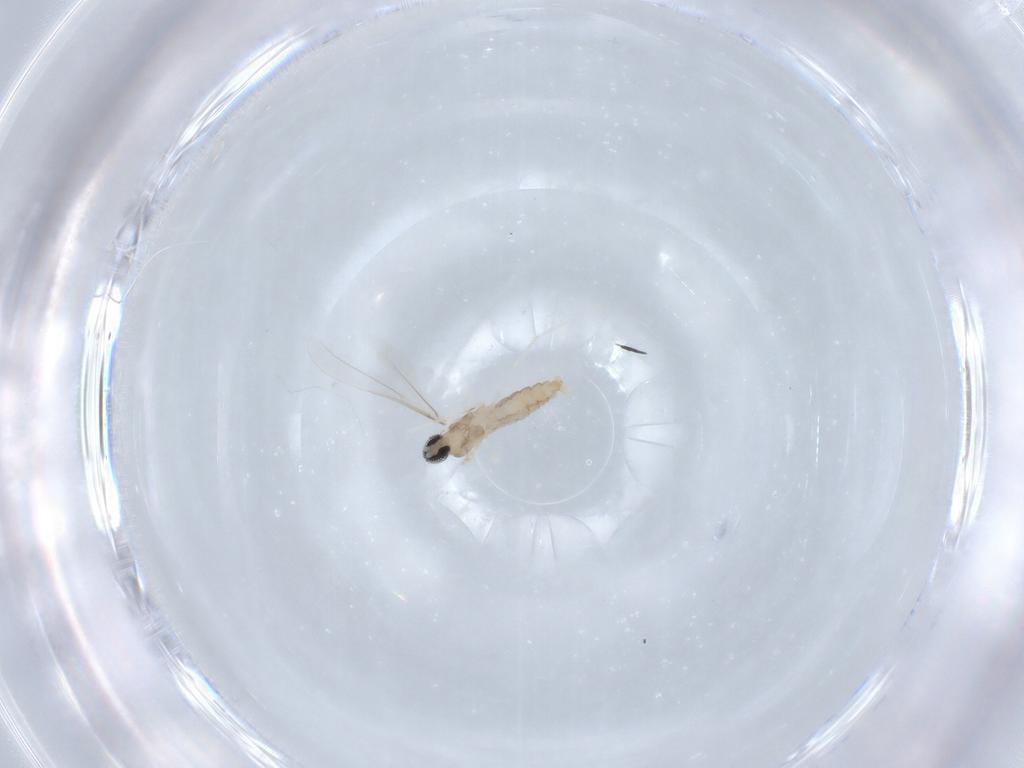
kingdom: Animalia
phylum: Arthropoda
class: Insecta
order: Diptera
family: Cecidomyiidae
